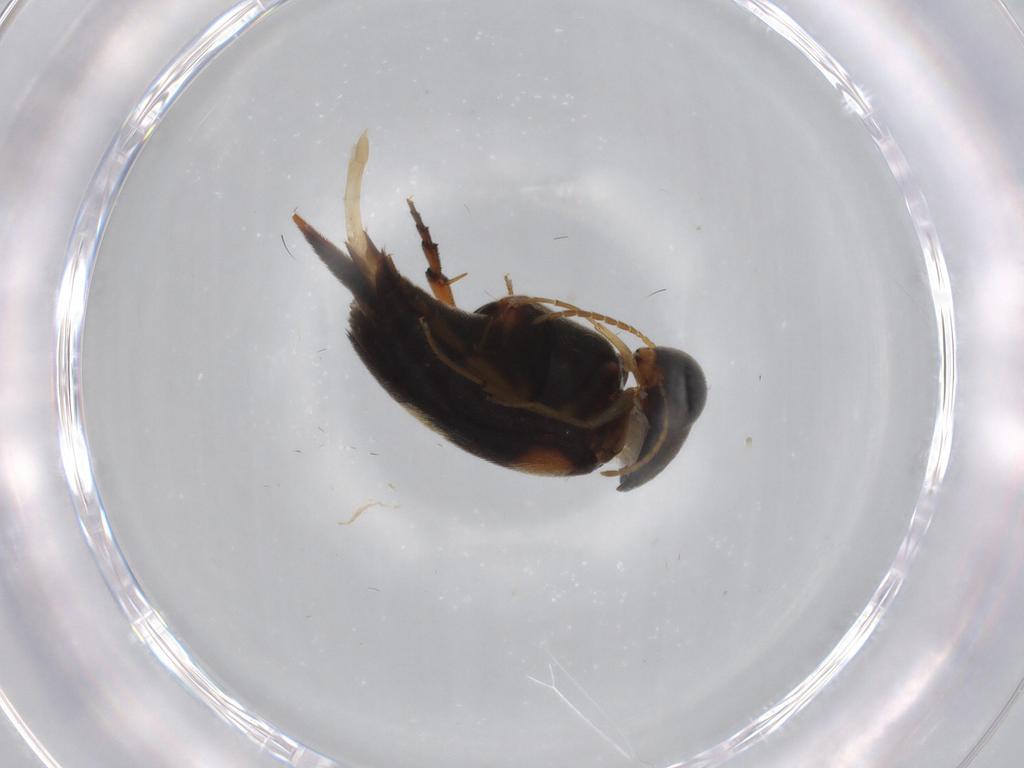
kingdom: Animalia
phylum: Arthropoda
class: Insecta
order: Coleoptera
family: Mordellidae
